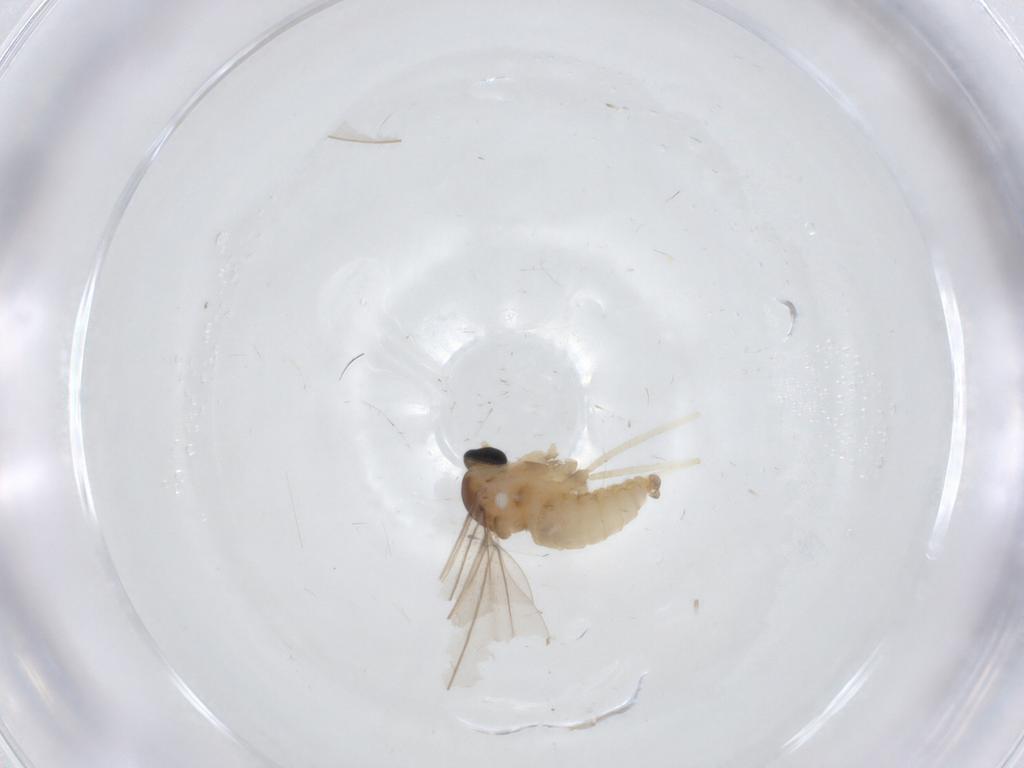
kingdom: Animalia
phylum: Arthropoda
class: Insecta
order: Diptera
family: Cecidomyiidae
